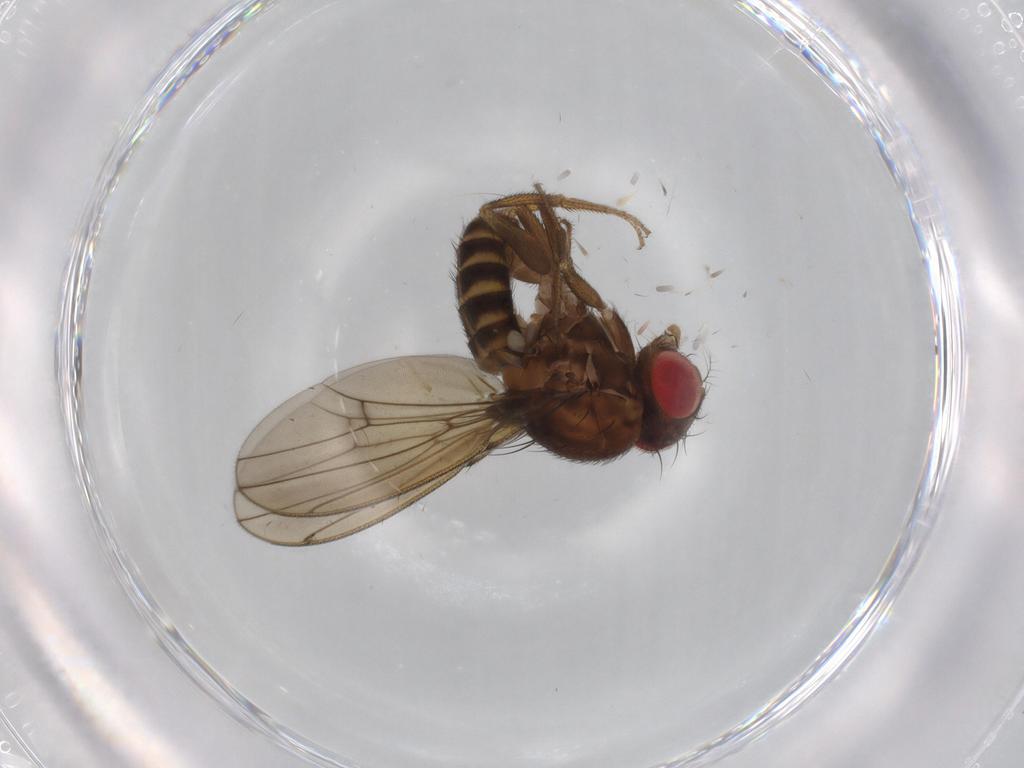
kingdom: Animalia
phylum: Arthropoda
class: Insecta
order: Diptera
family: Drosophilidae
